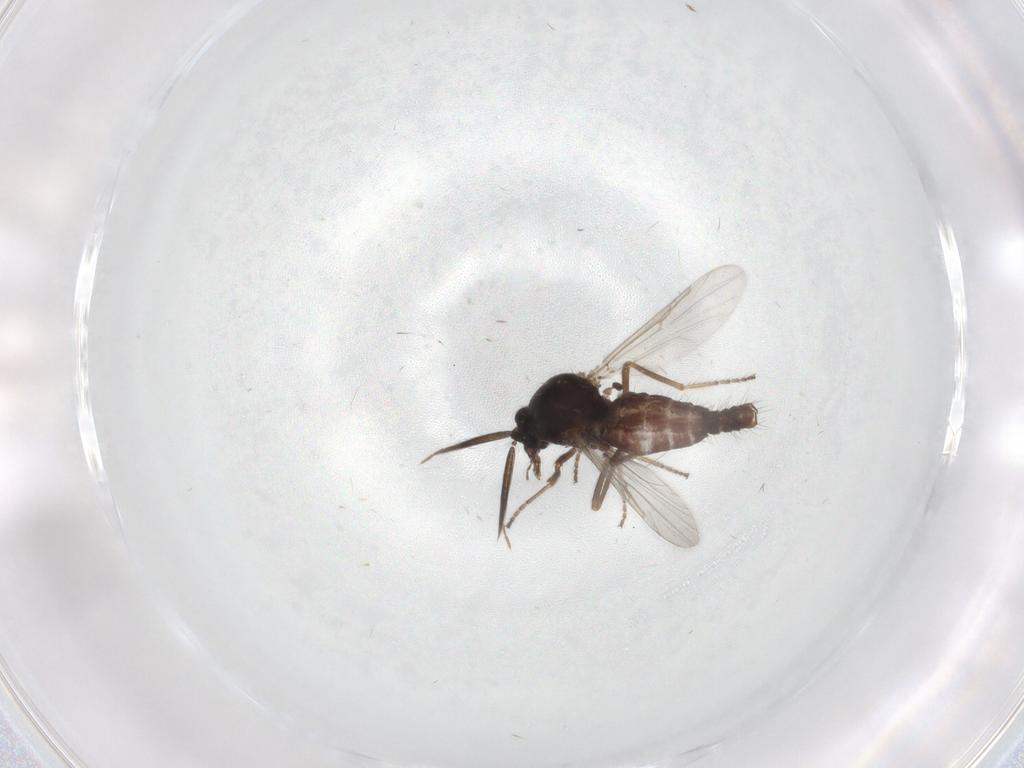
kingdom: Animalia
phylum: Arthropoda
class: Insecta
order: Diptera
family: Ceratopogonidae
